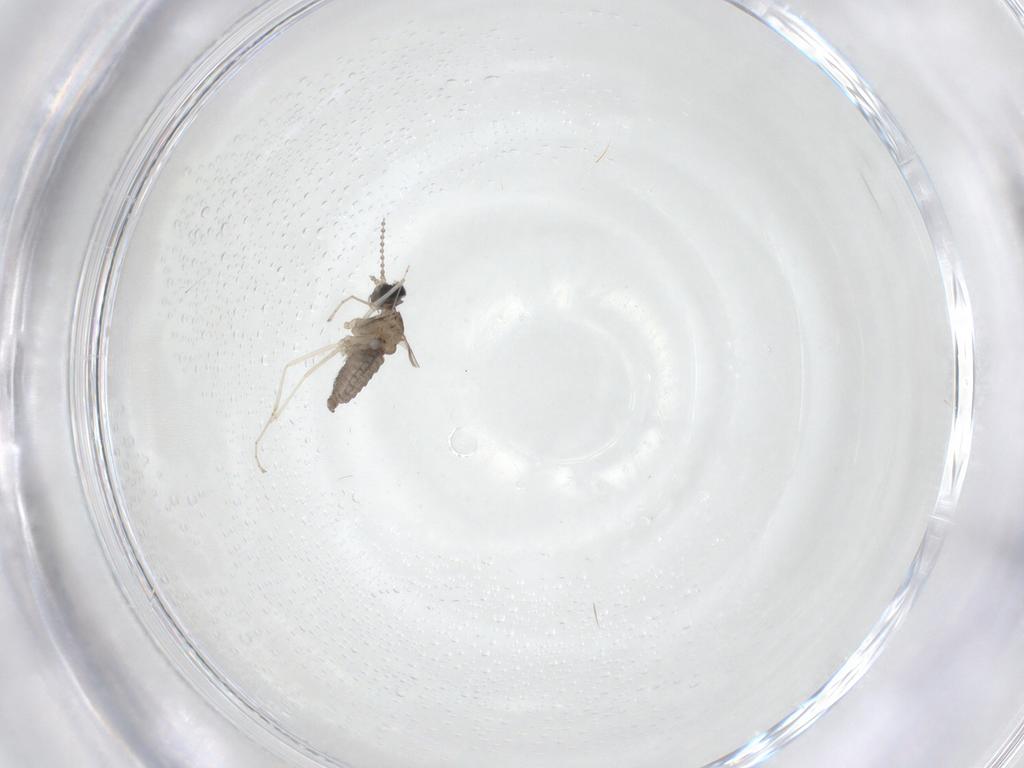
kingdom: Animalia
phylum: Arthropoda
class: Insecta
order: Diptera
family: Cecidomyiidae
